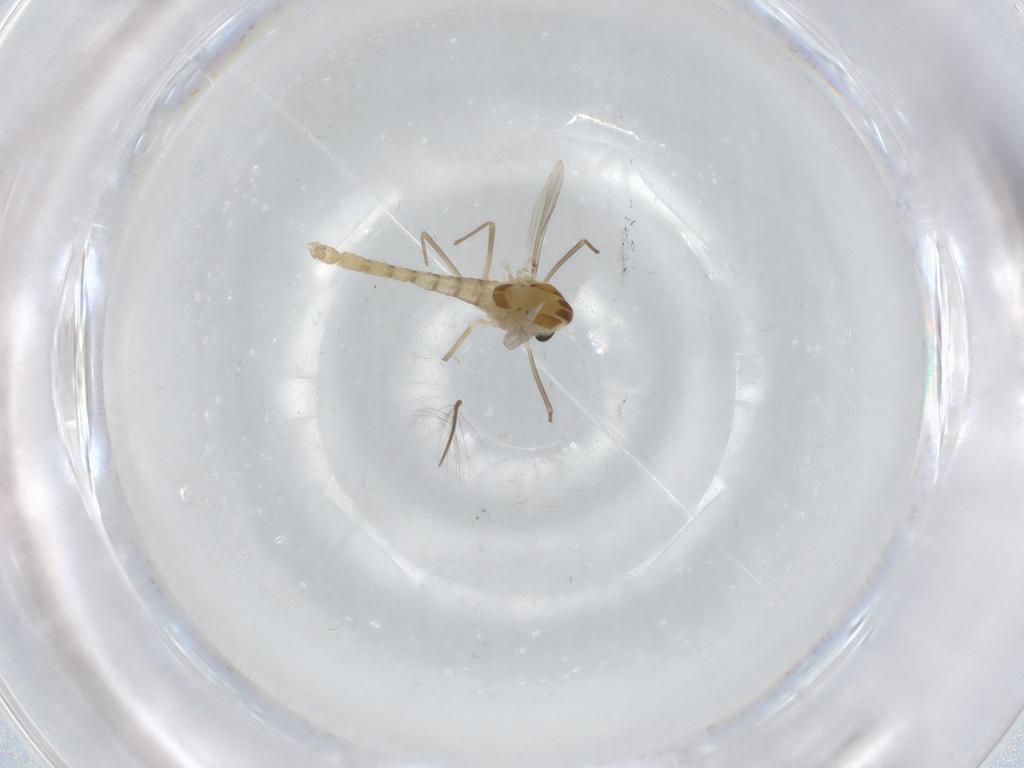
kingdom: Animalia
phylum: Arthropoda
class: Insecta
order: Diptera
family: Chironomidae
